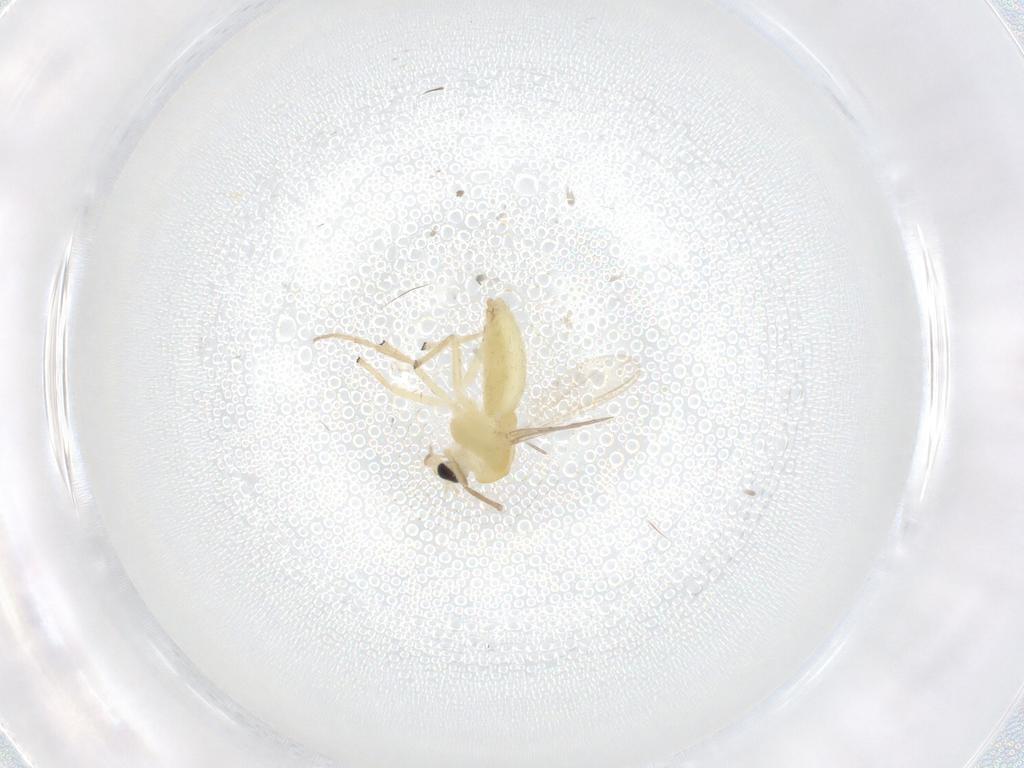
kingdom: Animalia
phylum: Arthropoda
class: Insecta
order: Diptera
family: Chironomidae
